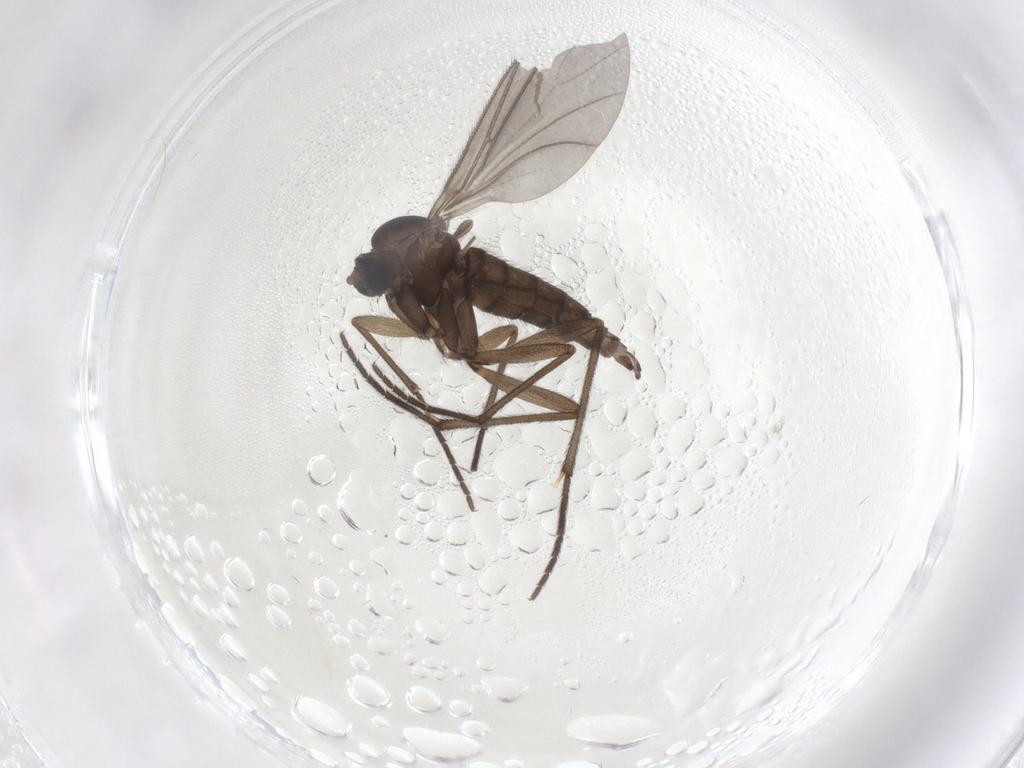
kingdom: Animalia
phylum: Arthropoda
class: Insecta
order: Diptera
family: Sciaridae
